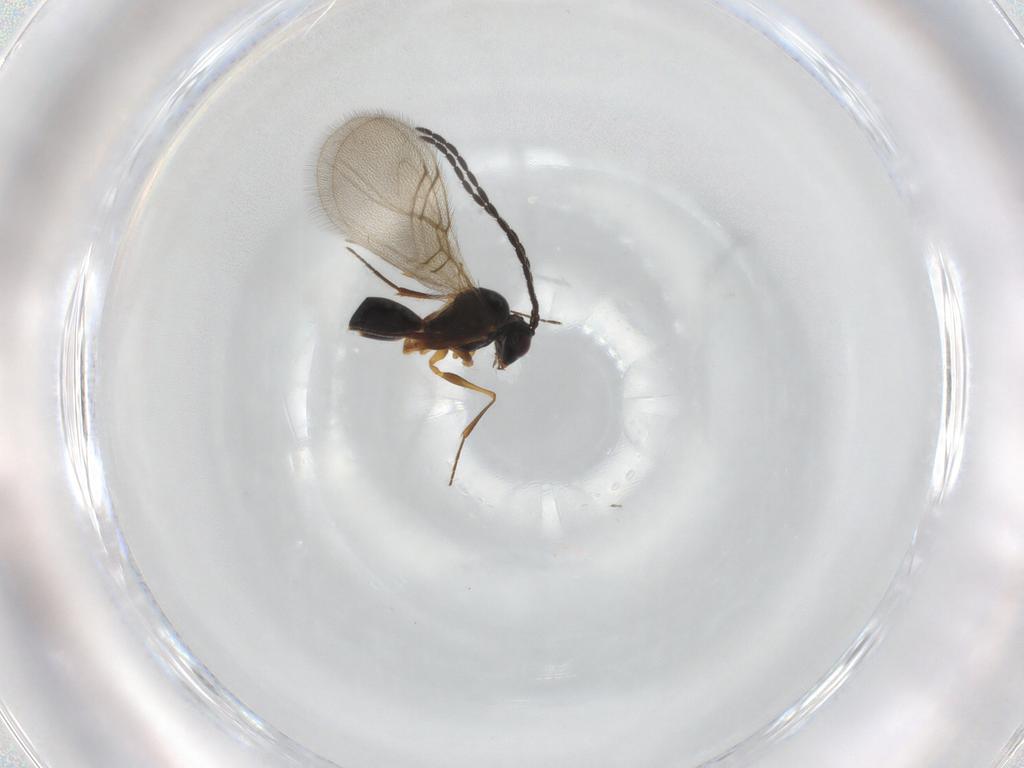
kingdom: Animalia
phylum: Arthropoda
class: Insecta
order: Hymenoptera
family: Figitidae
